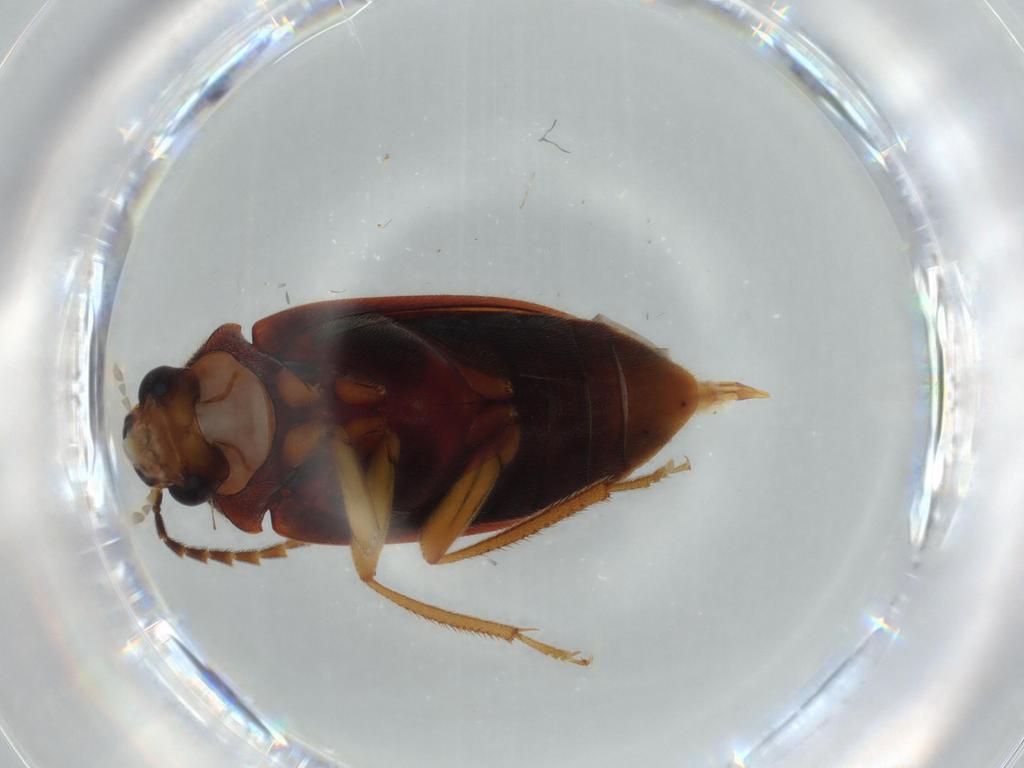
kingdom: Animalia
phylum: Arthropoda
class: Insecta
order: Coleoptera
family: Ptilodactylidae
